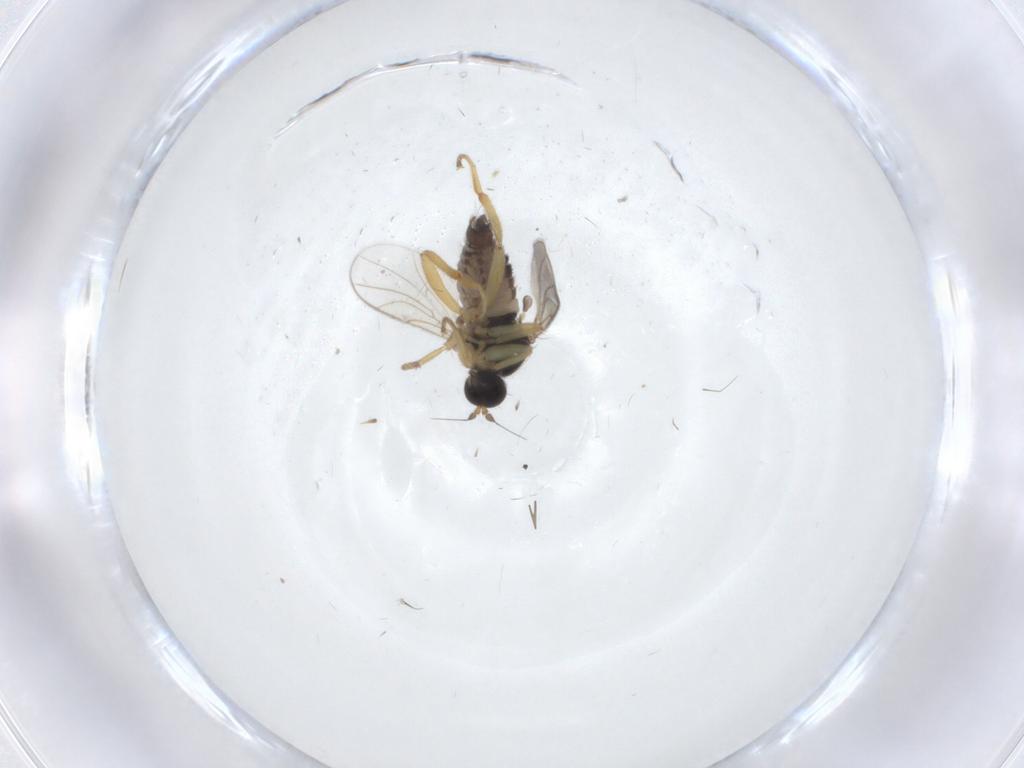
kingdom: Animalia
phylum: Arthropoda
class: Insecta
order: Diptera
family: Hybotidae
